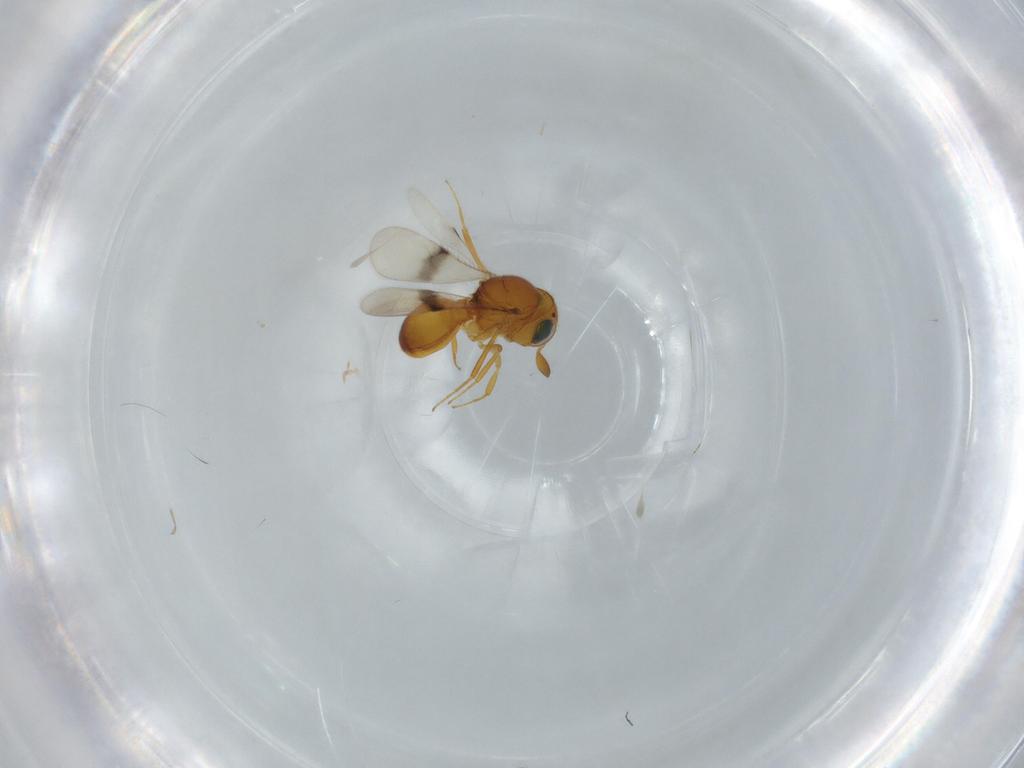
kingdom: Animalia
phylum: Arthropoda
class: Insecta
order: Hymenoptera
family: Scelionidae
